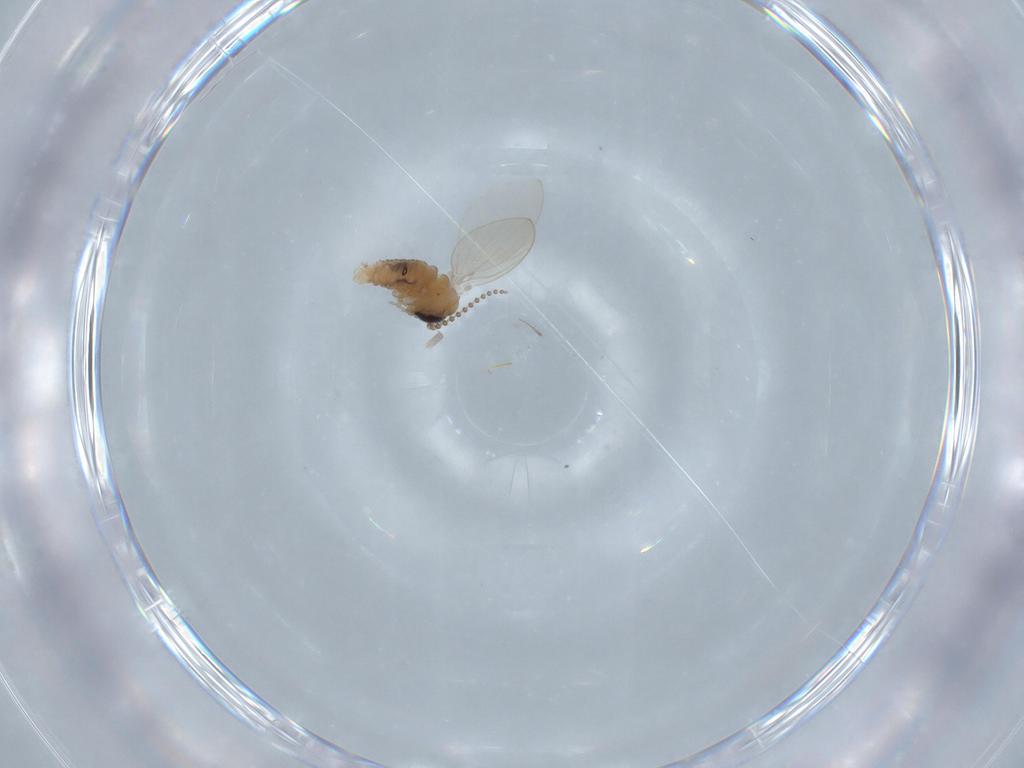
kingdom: Animalia
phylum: Arthropoda
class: Insecta
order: Diptera
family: Psychodidae
